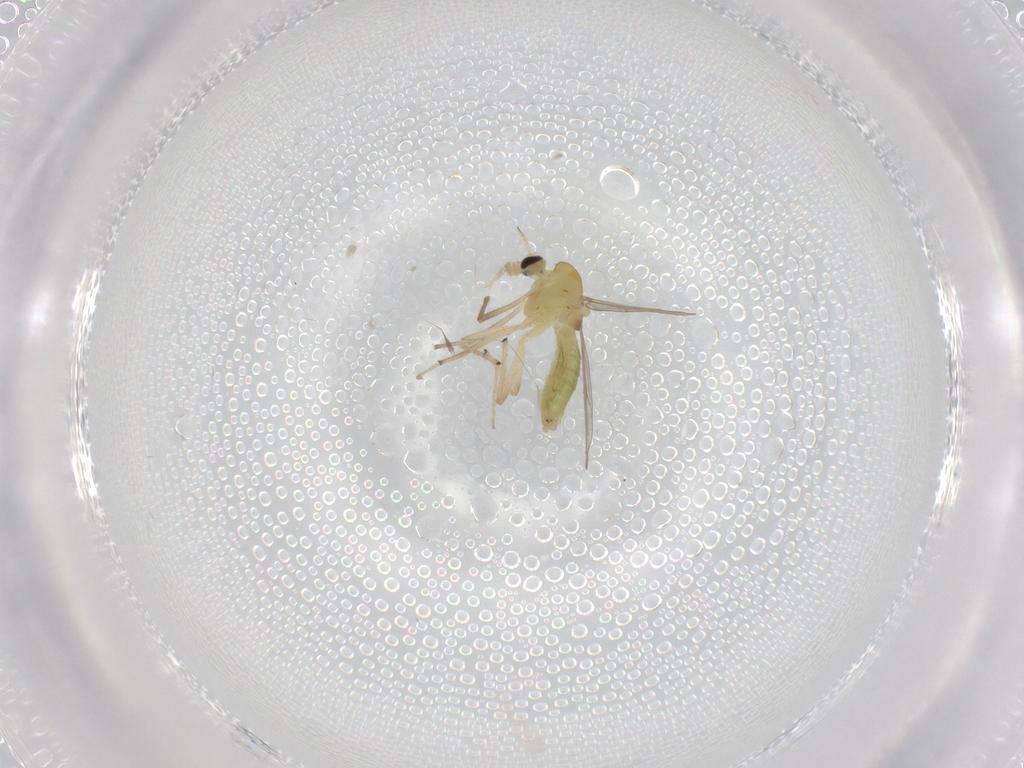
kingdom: Animalia
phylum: Arthropoda
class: Insecta
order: Diptera
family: Chironomidae
